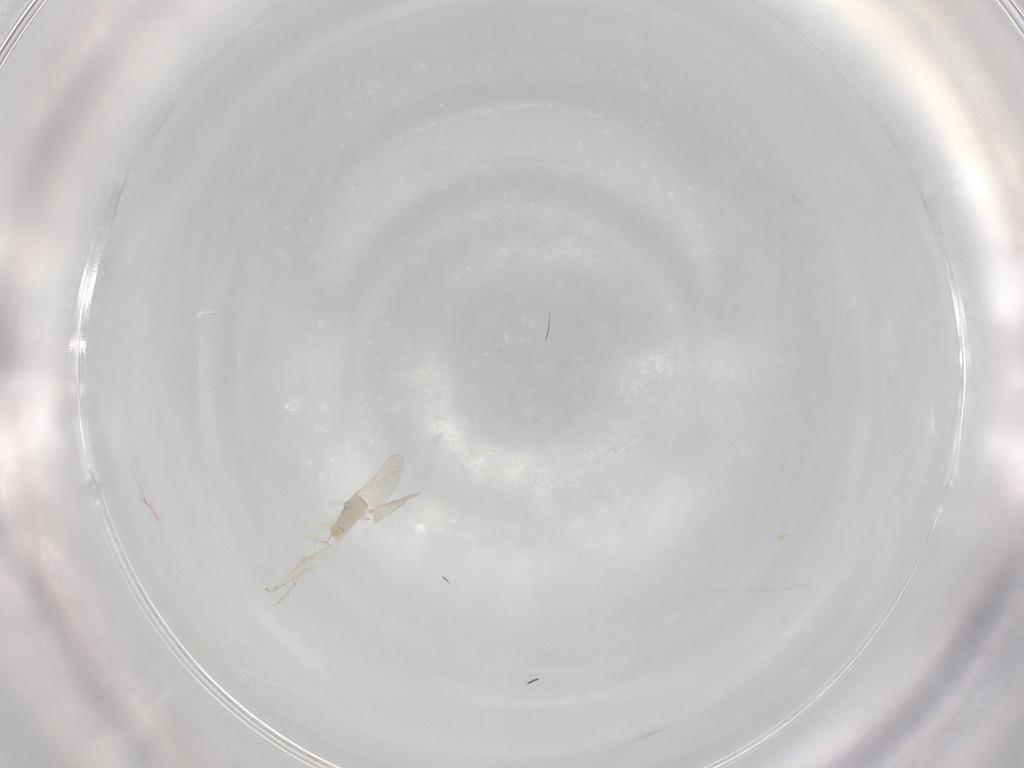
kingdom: Animalia
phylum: Arthropoda
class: Insecta
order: Diptera
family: Cecidomyiidae
